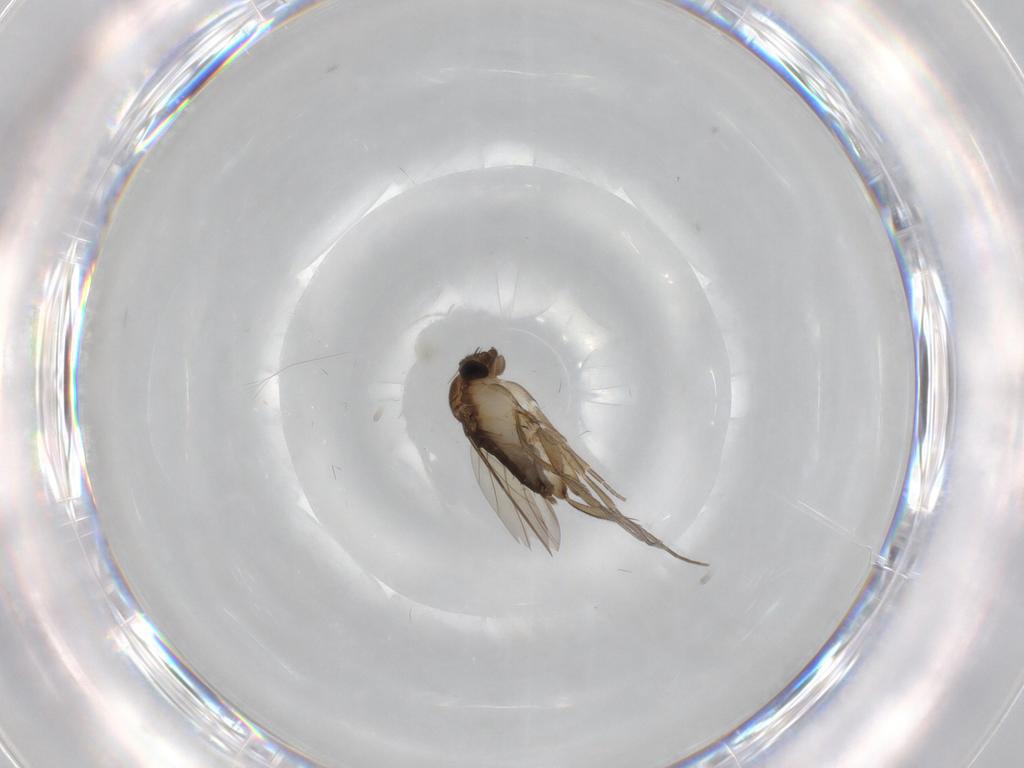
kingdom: Animalia
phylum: Arthropoda
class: Insecta
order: Diptera
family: Phoridae
